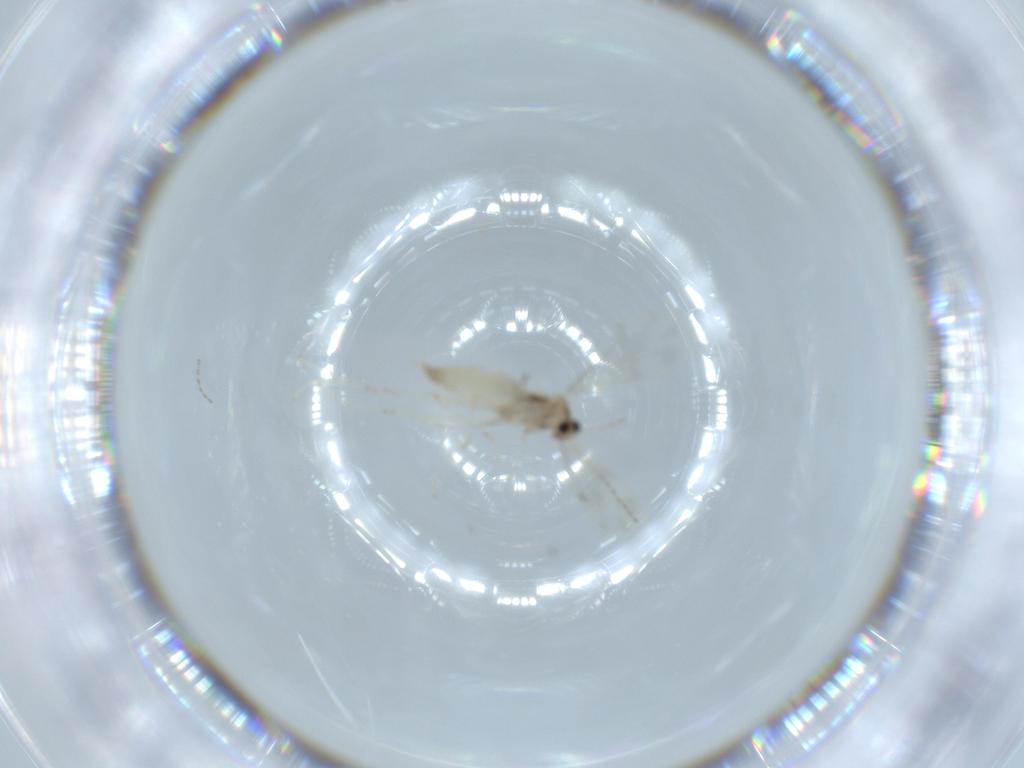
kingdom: Animalia
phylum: Arthropoda
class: Insecta
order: Diptera
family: Cecidomyiidae
